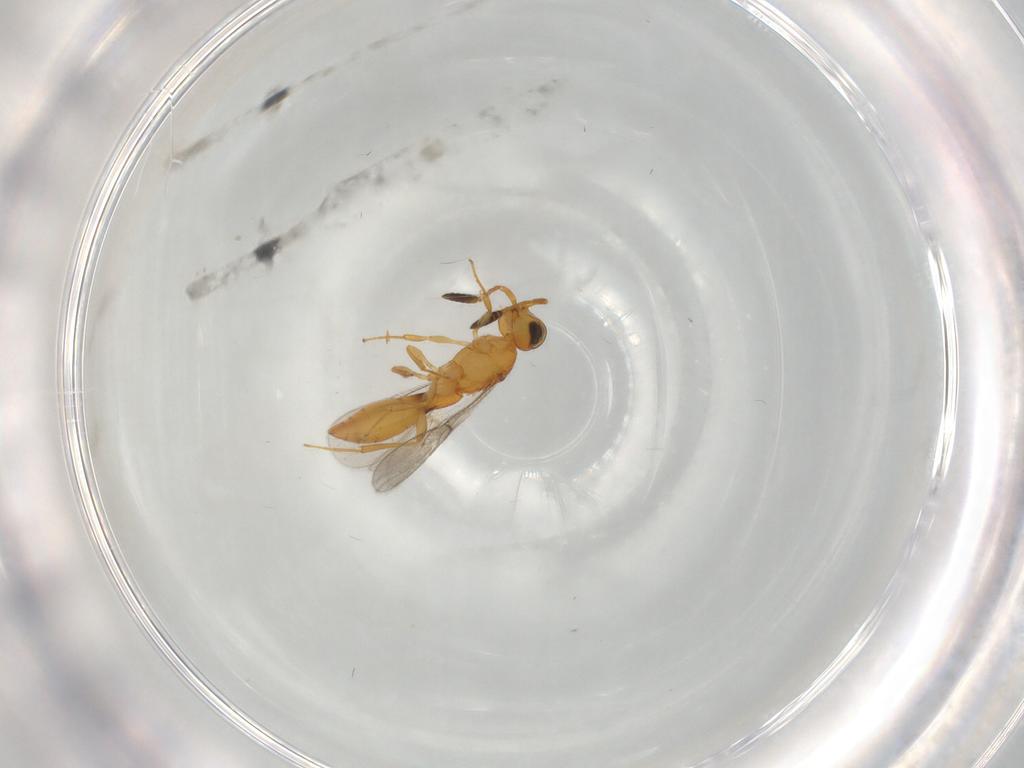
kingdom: Animalia
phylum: Arthropoda
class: Insecta
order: Hymenoptera
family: Scelionidae
